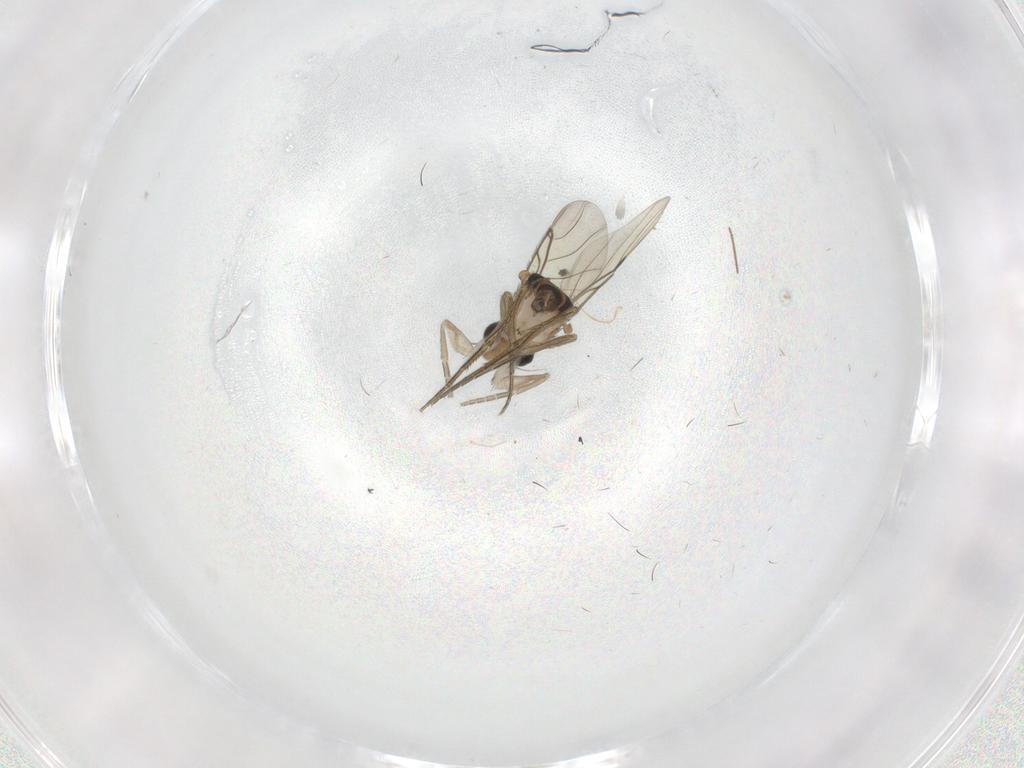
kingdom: Animalia
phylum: Arthropoda
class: Insecta
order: Diptera
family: Phoridae
